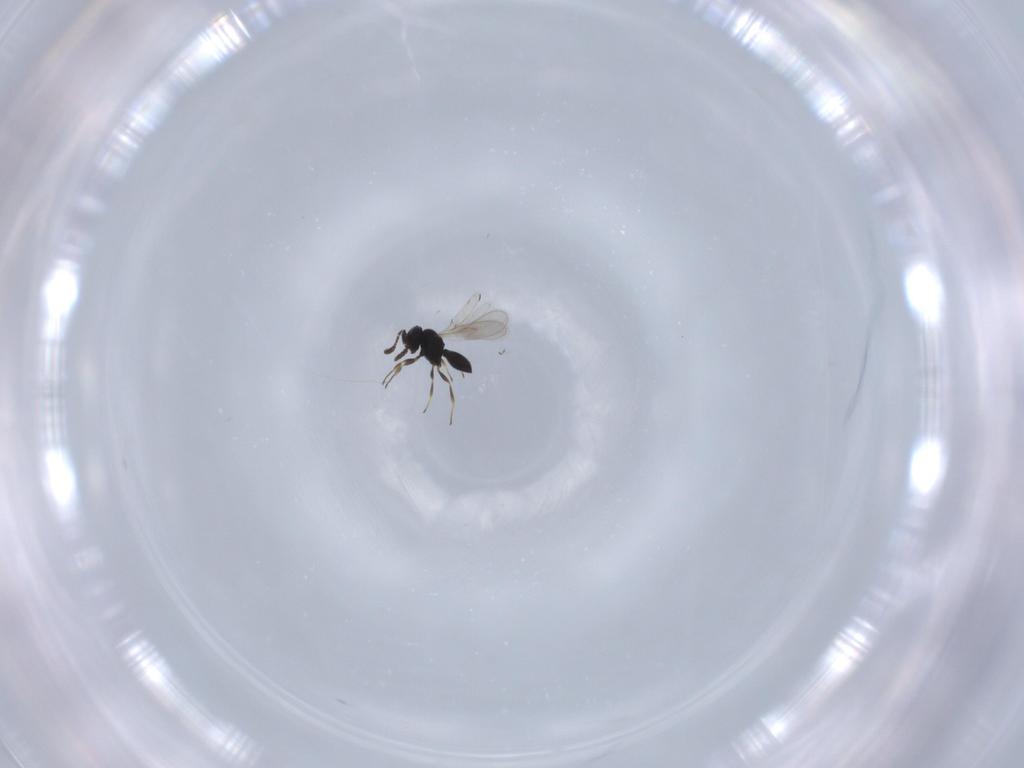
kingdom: Animalia
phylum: Arthropoda
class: Insecta
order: Hymenoptera
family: Scelionidae
